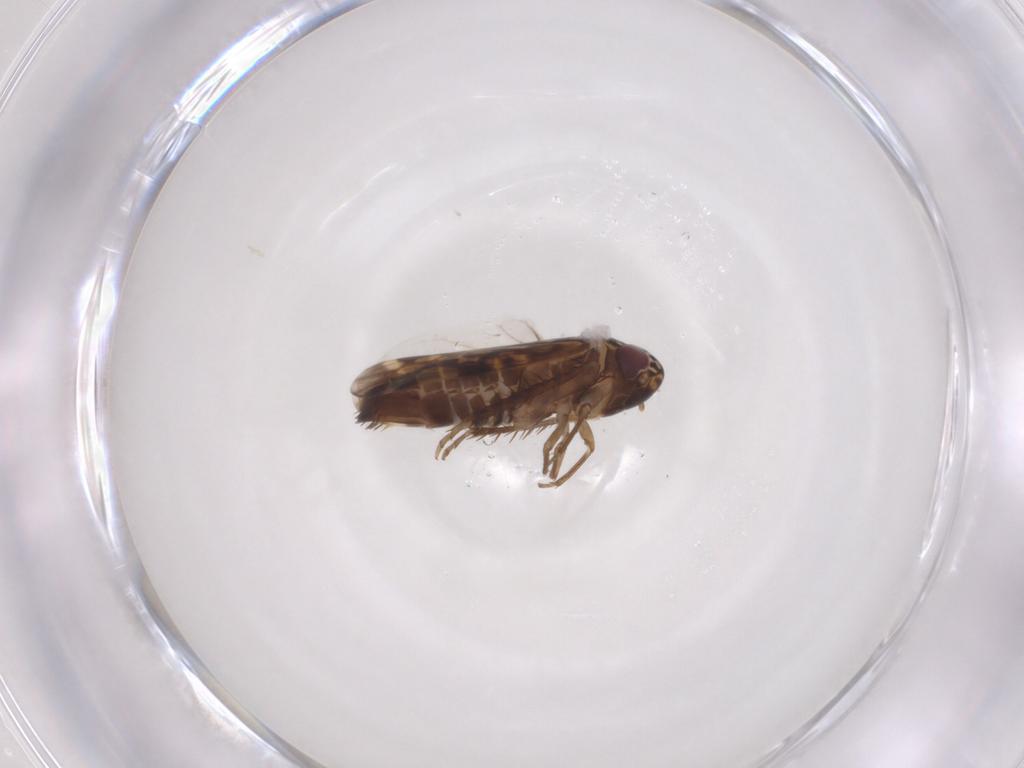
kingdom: Animalia
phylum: Arthropoda
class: Insecta
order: Hemiptera
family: Cicadellidae
